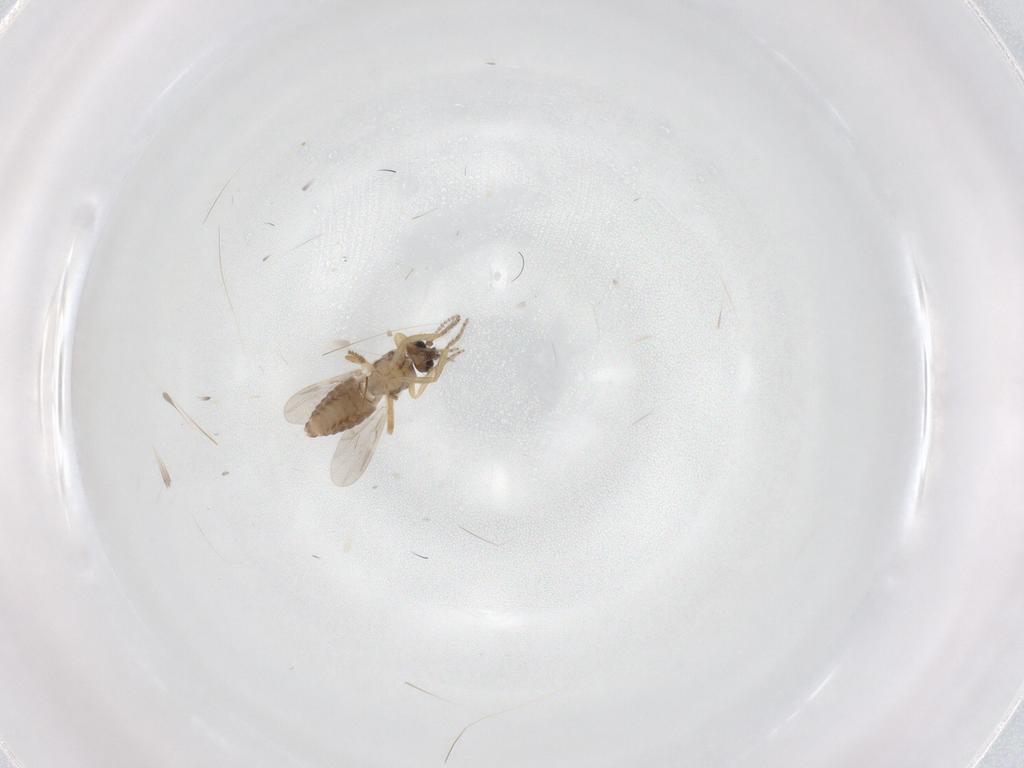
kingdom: Animalia
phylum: Arthropoda
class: Insecta
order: Diptera
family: Ceratopogonidae
